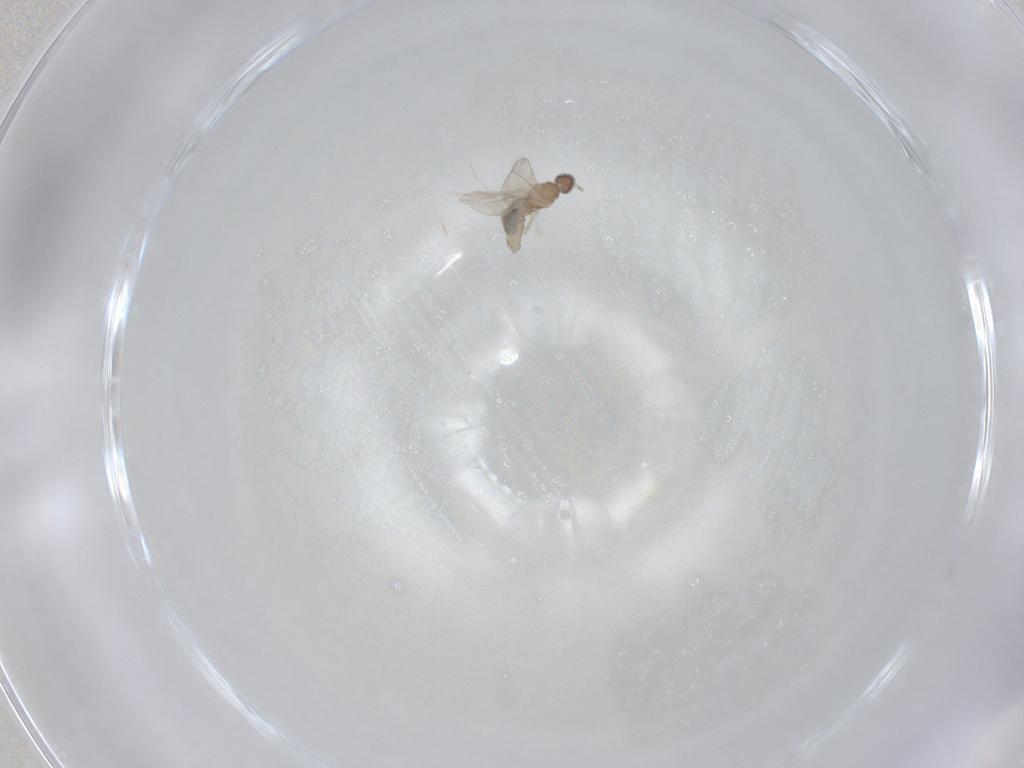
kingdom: Animalia
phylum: Arthropoda
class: Insecta
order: Diptera
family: Cecidomyiidae
